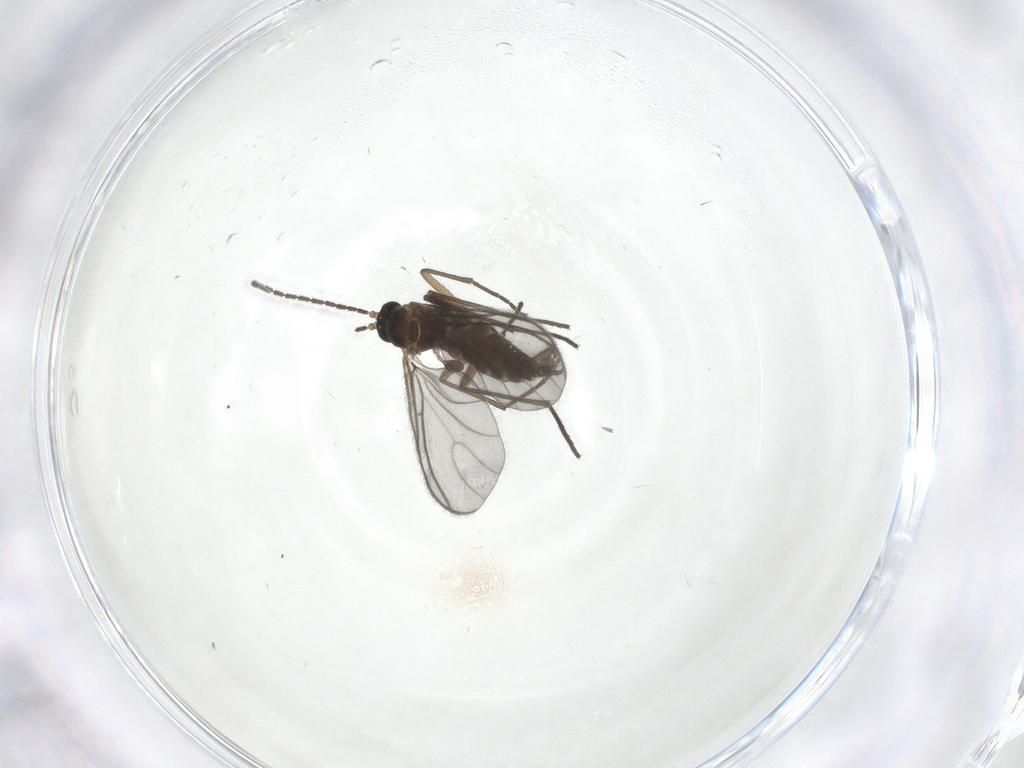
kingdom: Animalia
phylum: Arthropoda
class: Insecta
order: Diptera
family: Sciaridae
